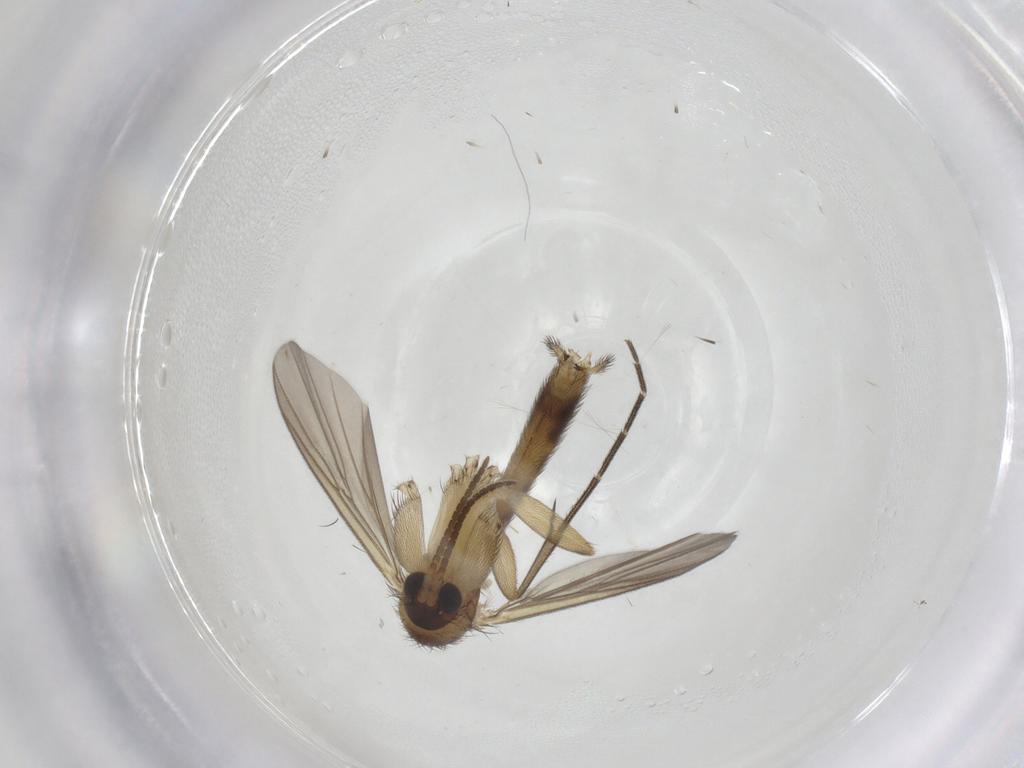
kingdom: Animalia
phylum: Arthropoda
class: Insecta
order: Diptera
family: Mycetophilidae
